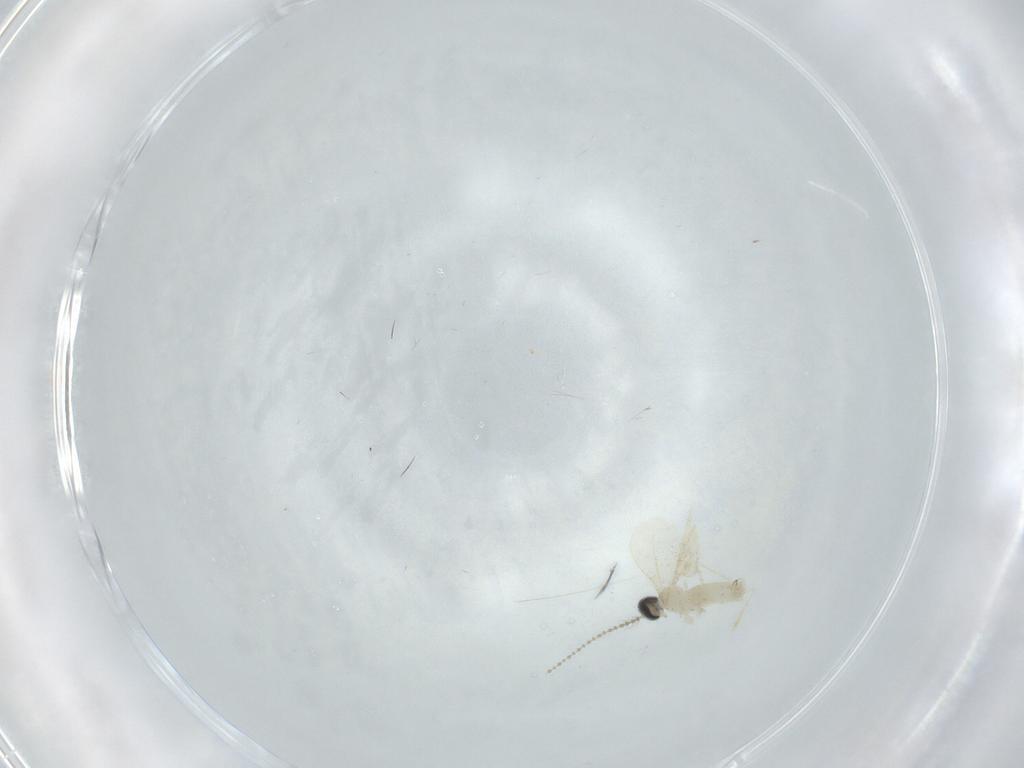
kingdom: Animalia
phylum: Arthropoda
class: Insecta
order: Diptera
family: Cecidomyiidae
